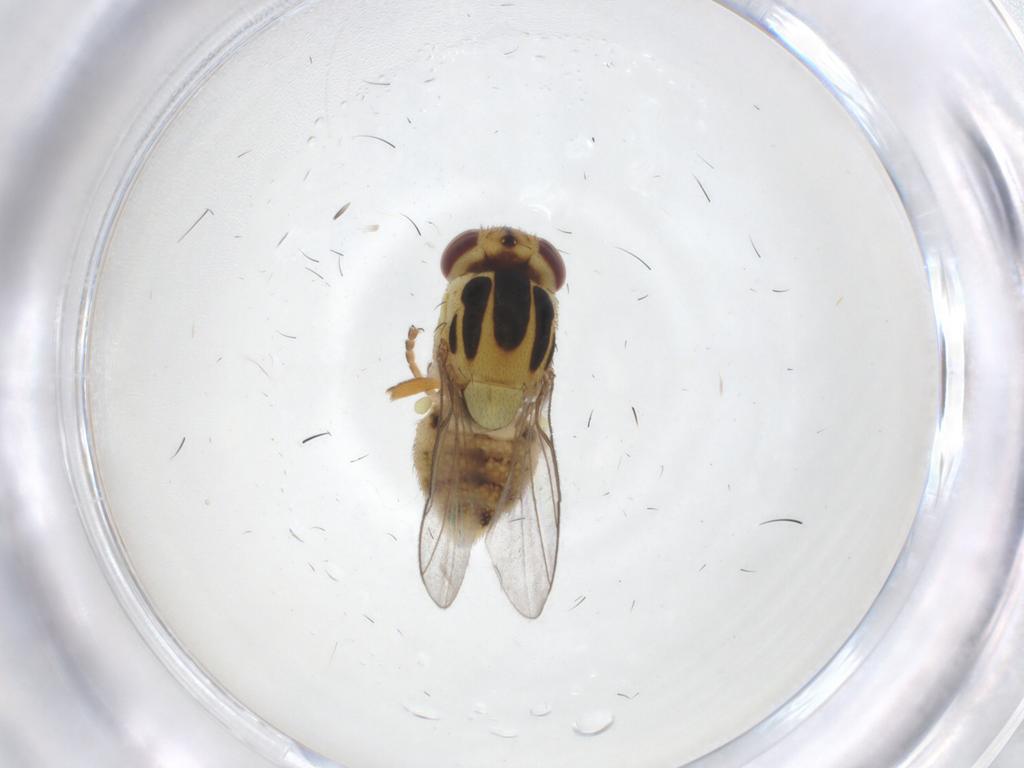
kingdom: Animalia
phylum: Arthropoda
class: Insecta
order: Diptera
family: Chloropidae
